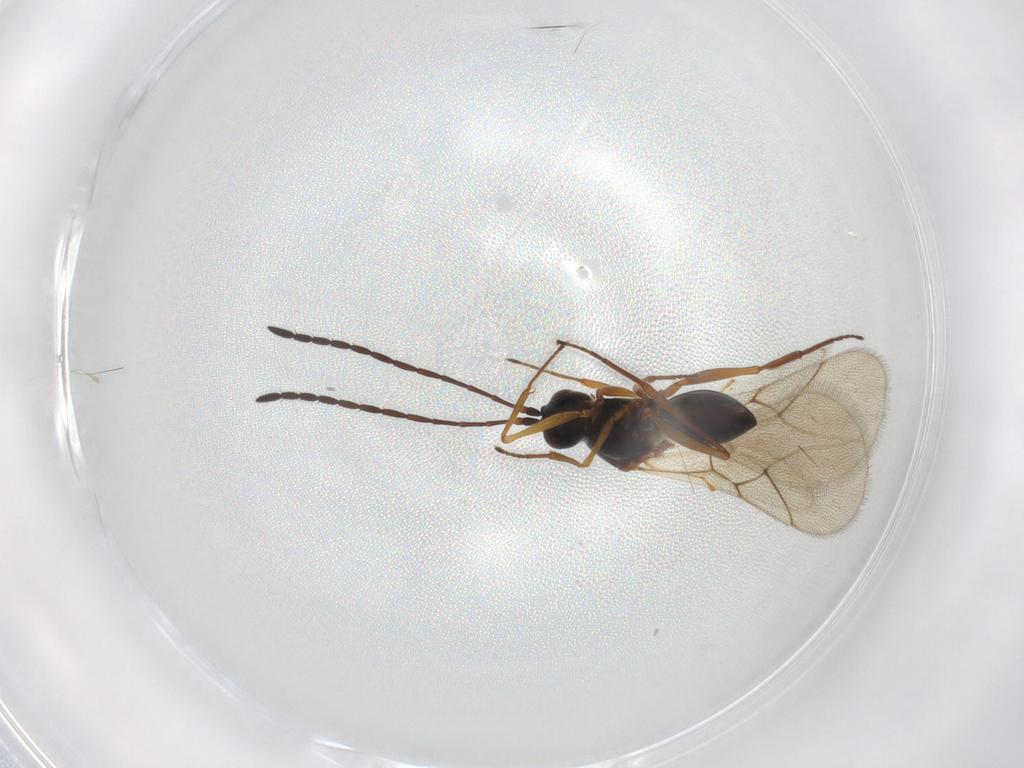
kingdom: Animalia
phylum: Arthropoda
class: Insecta
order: Hymenoptera
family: Figitidae
